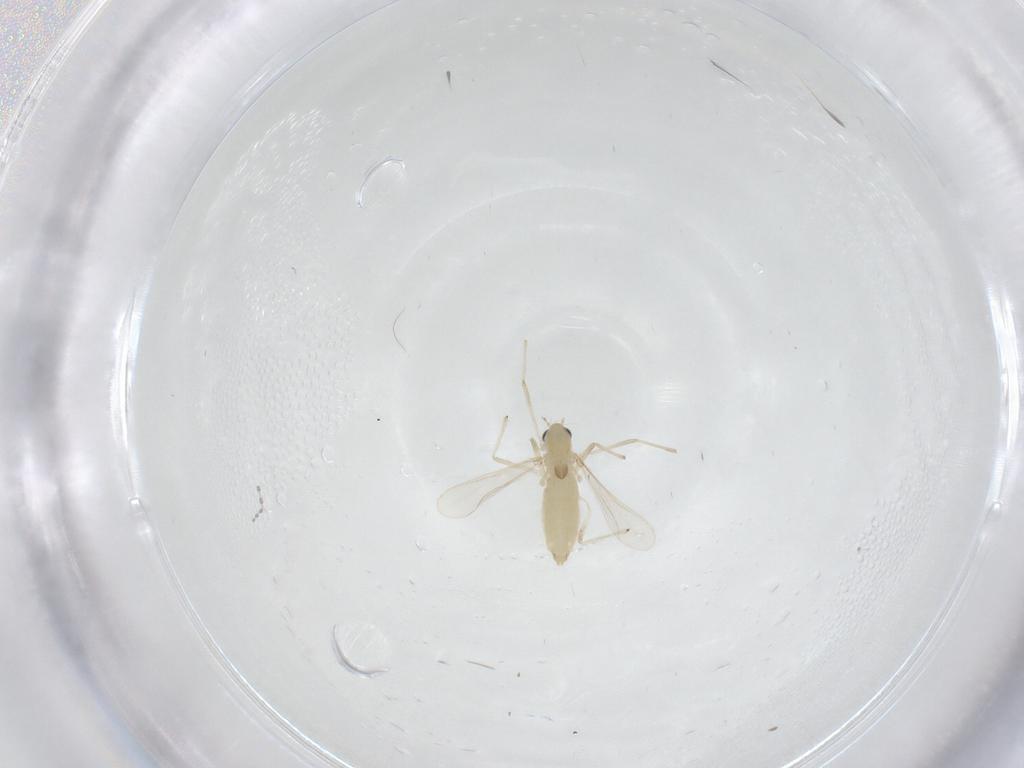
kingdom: Animalia
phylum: Arthropoda
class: Insecta
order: Diptera
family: Chironomidae
